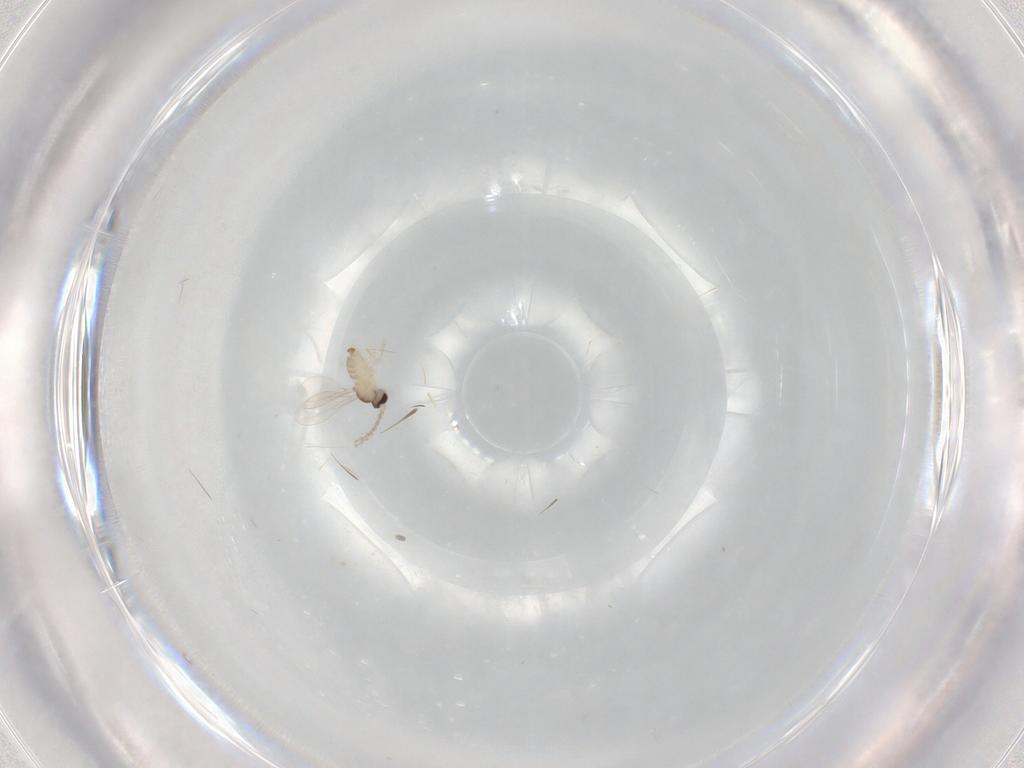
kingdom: Animalia
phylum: Arthropoda
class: Insecta
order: Diptera
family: Cecidomyiidae
